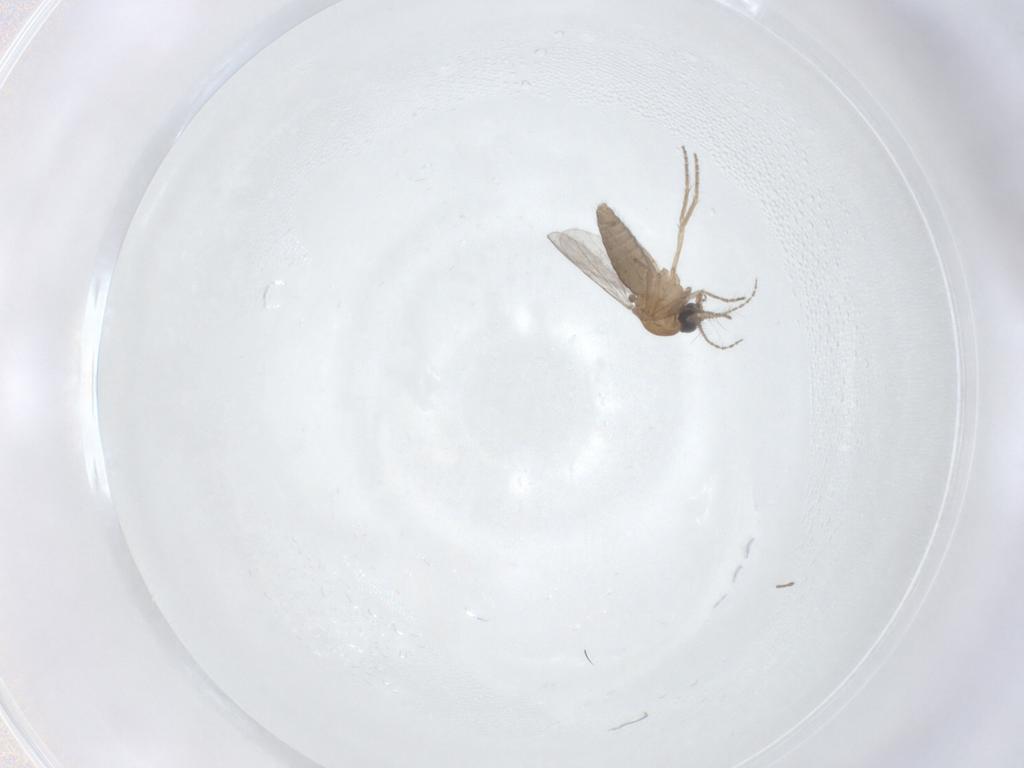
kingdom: Animalia
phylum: Arthropoda
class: Insecta
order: Diptera
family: Ceratopogonidae
